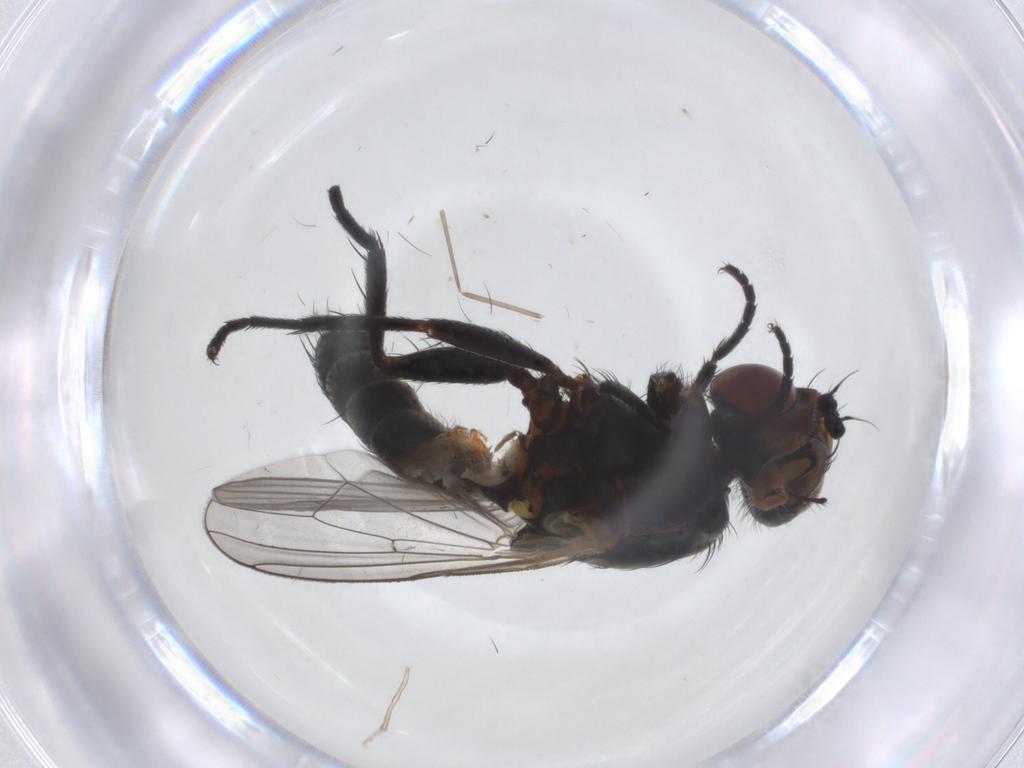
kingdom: Animalia
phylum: Arthropoda
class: Insecta
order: Diptera
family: Anthomyiidae
